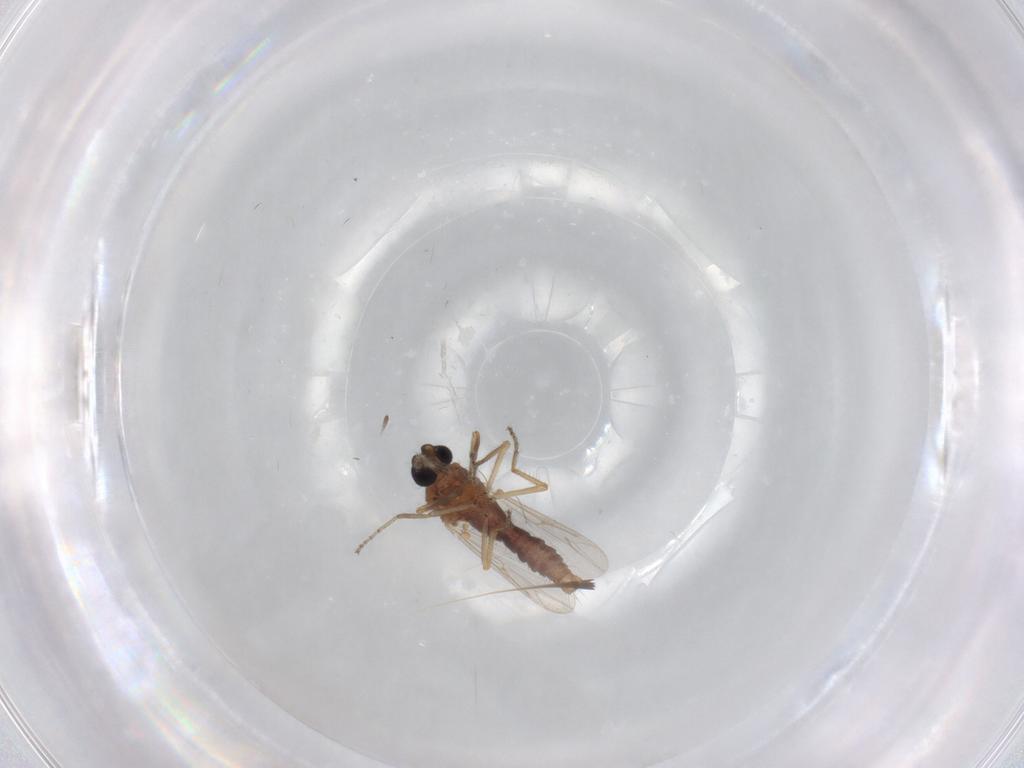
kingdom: Animalia
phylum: Arthropoda
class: Insecta
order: Diptera
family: Ceratopogonidae
